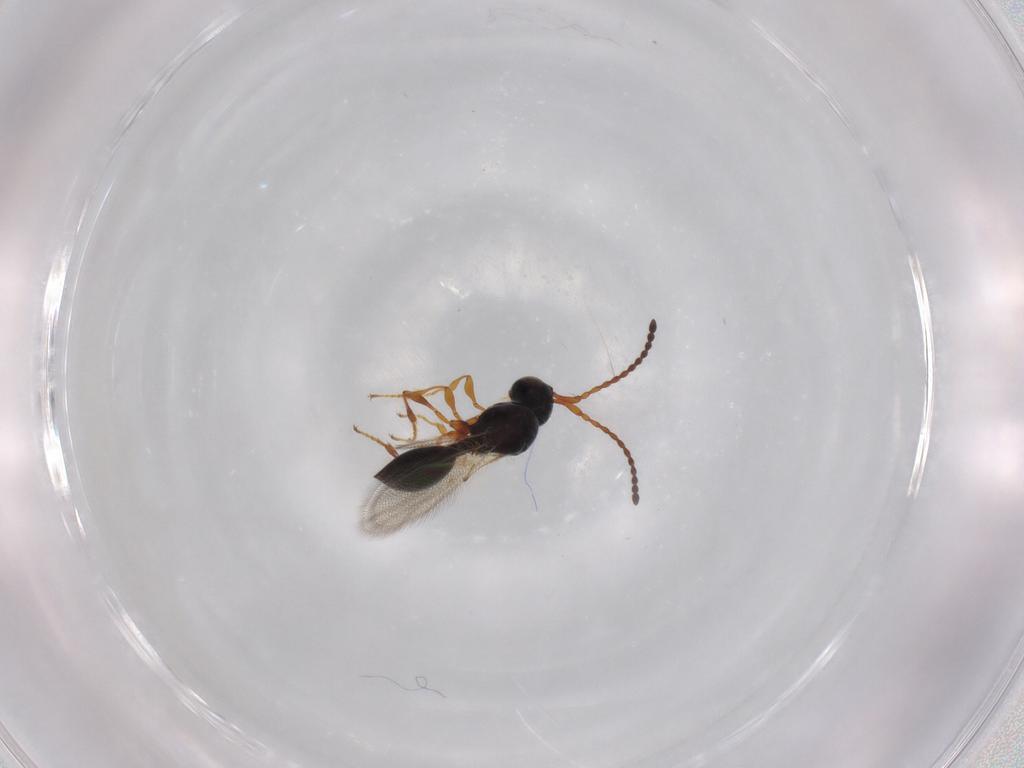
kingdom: Animalia
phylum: Arthropoda
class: Insecta
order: Hymenoptera
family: Diapriidae
